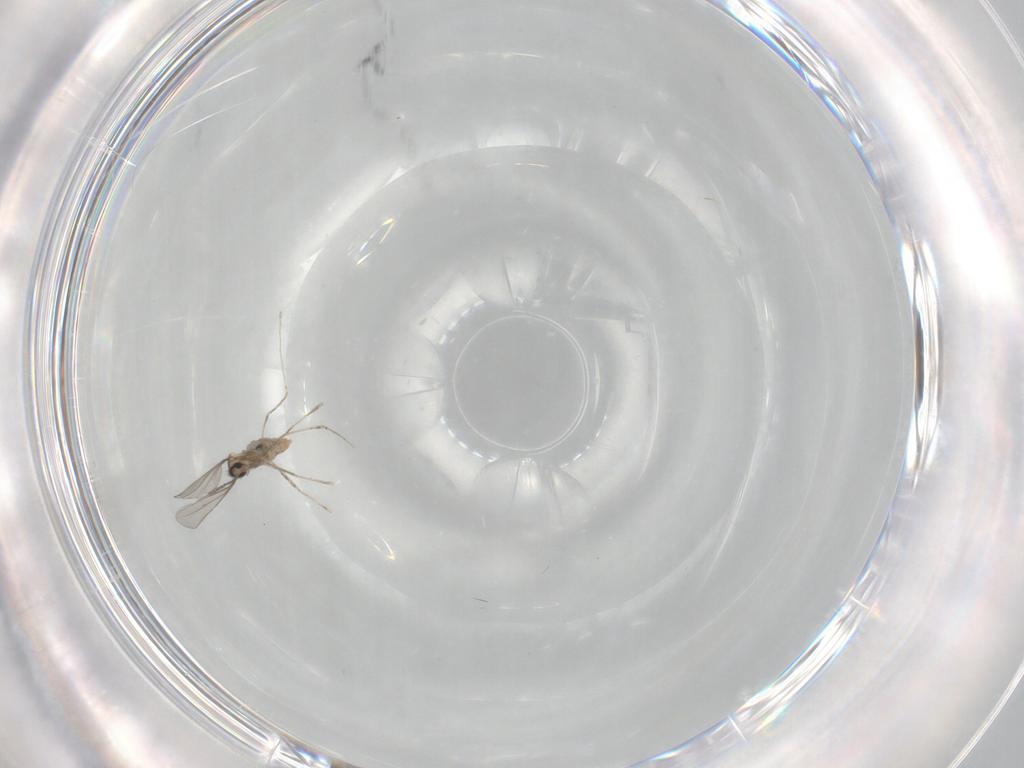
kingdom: Animalia
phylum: Arthropoda
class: Insecta
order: Diptera
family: Cecidomyiidae
